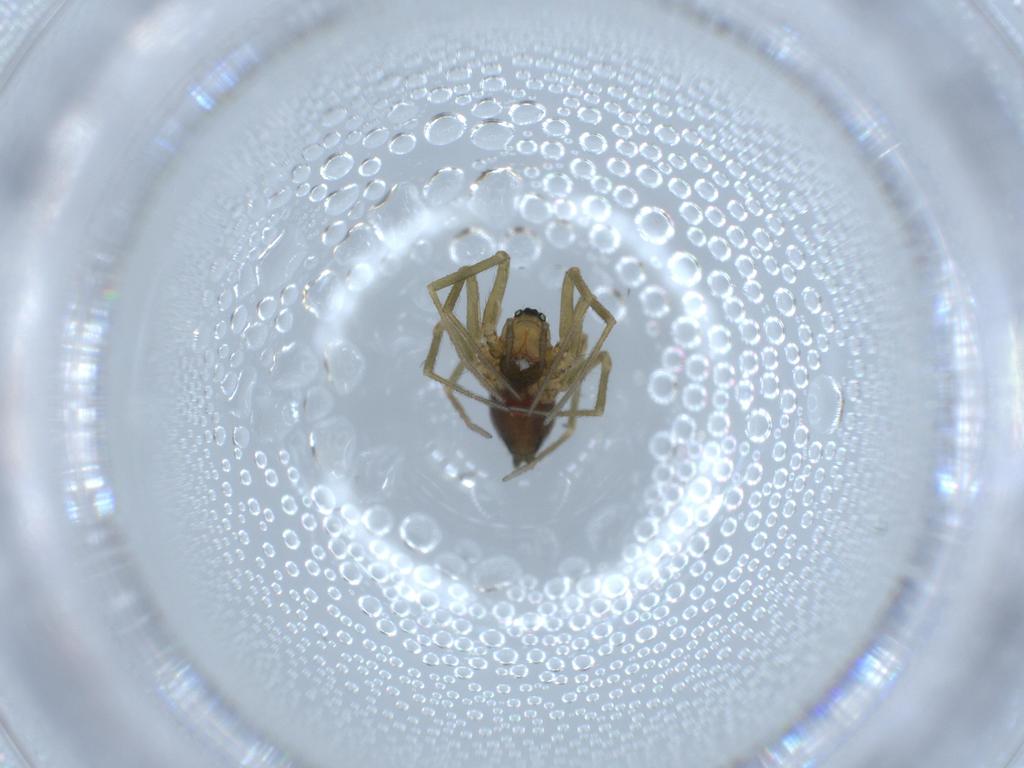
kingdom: Animalia
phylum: Arthropoda
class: Arachnida
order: Araneae
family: Linyphiidae
